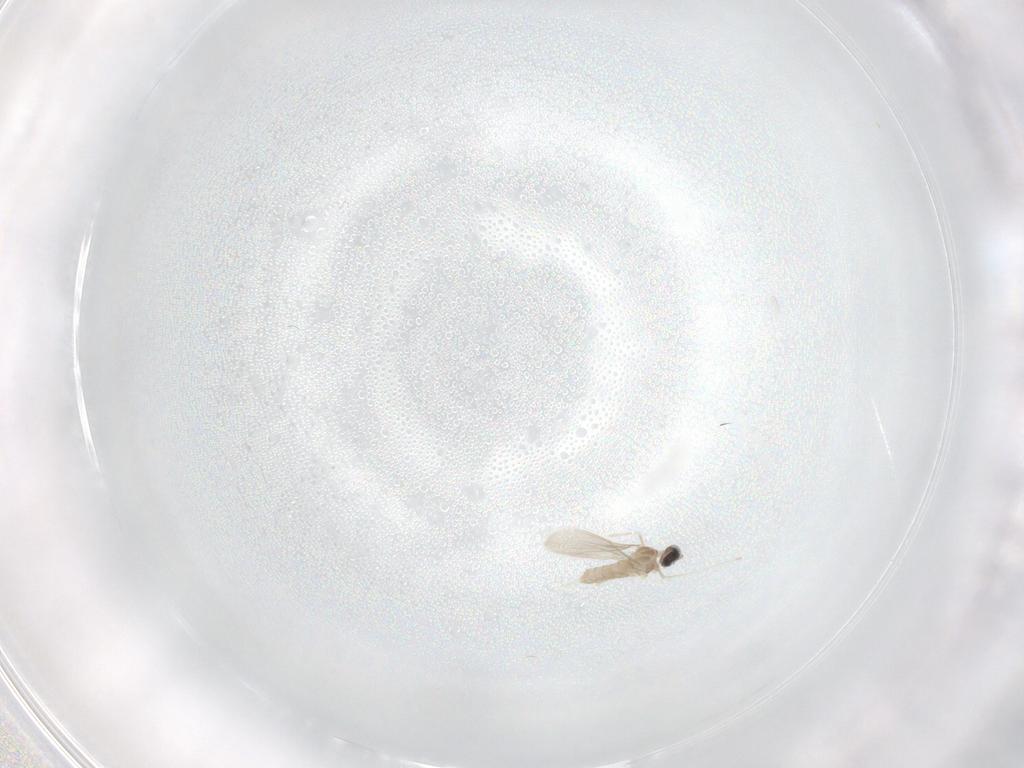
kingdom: Animalia
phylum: Arthropoda
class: Insecta
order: Diptera
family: Cecidomyiidae
